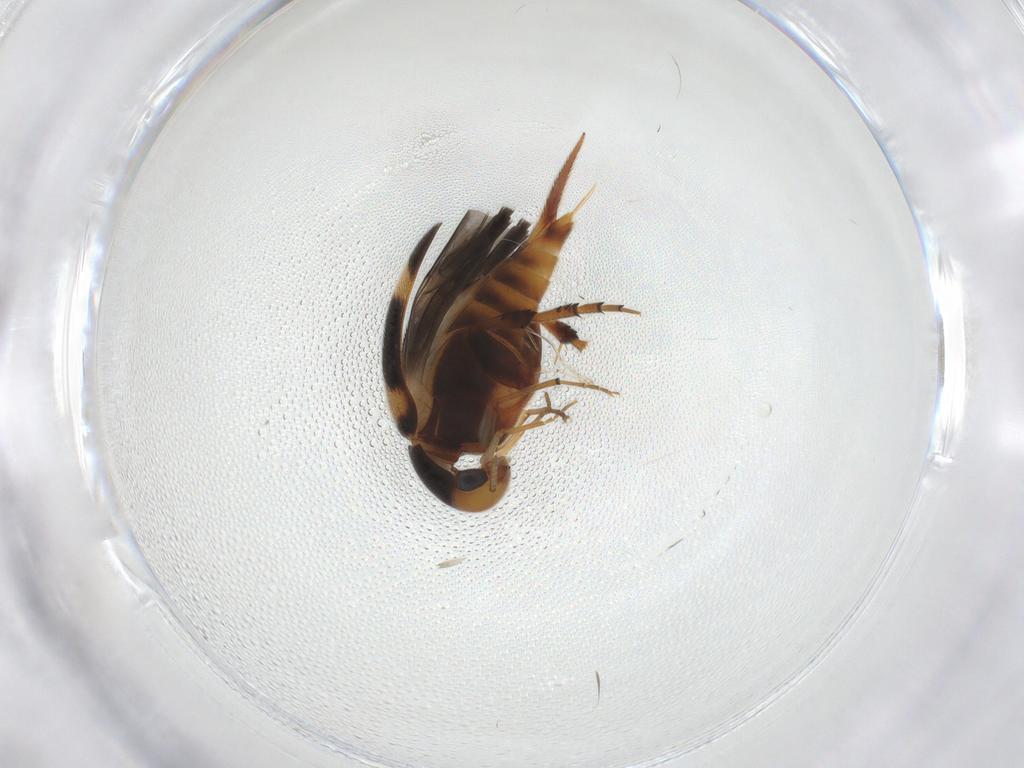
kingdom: Animalia
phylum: Arthropoda
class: Insecta
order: Coleoptera
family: Mordellidae
